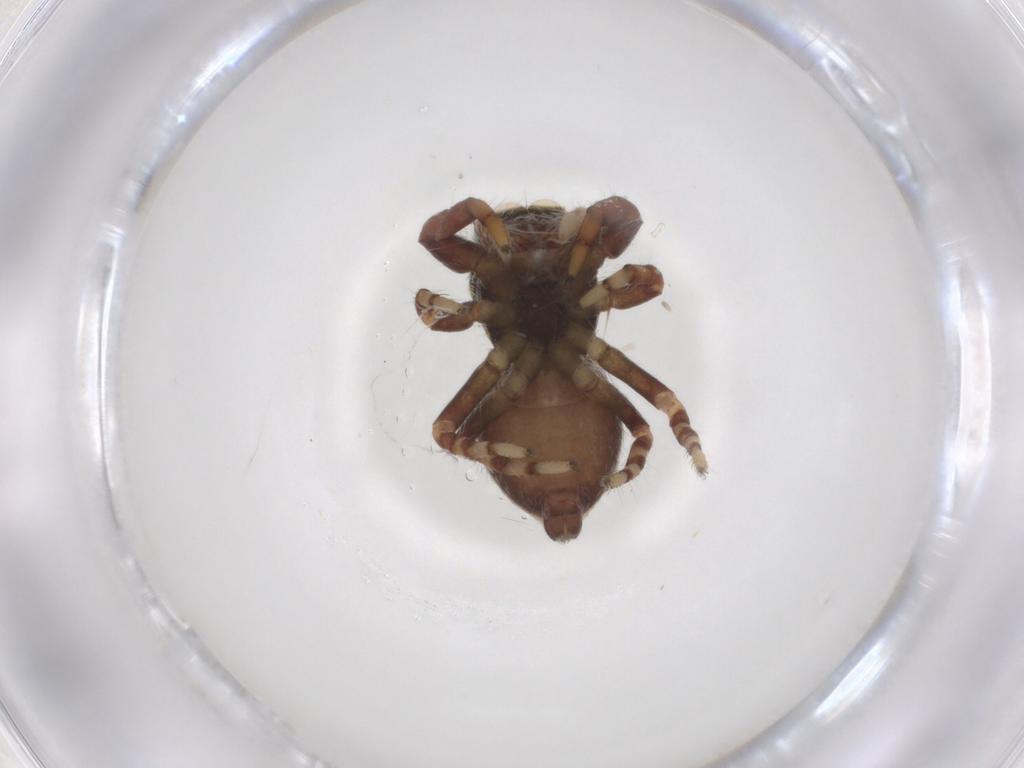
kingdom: Animalia
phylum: Arthropoda
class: Arachnida
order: Araneae
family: Salticidae
